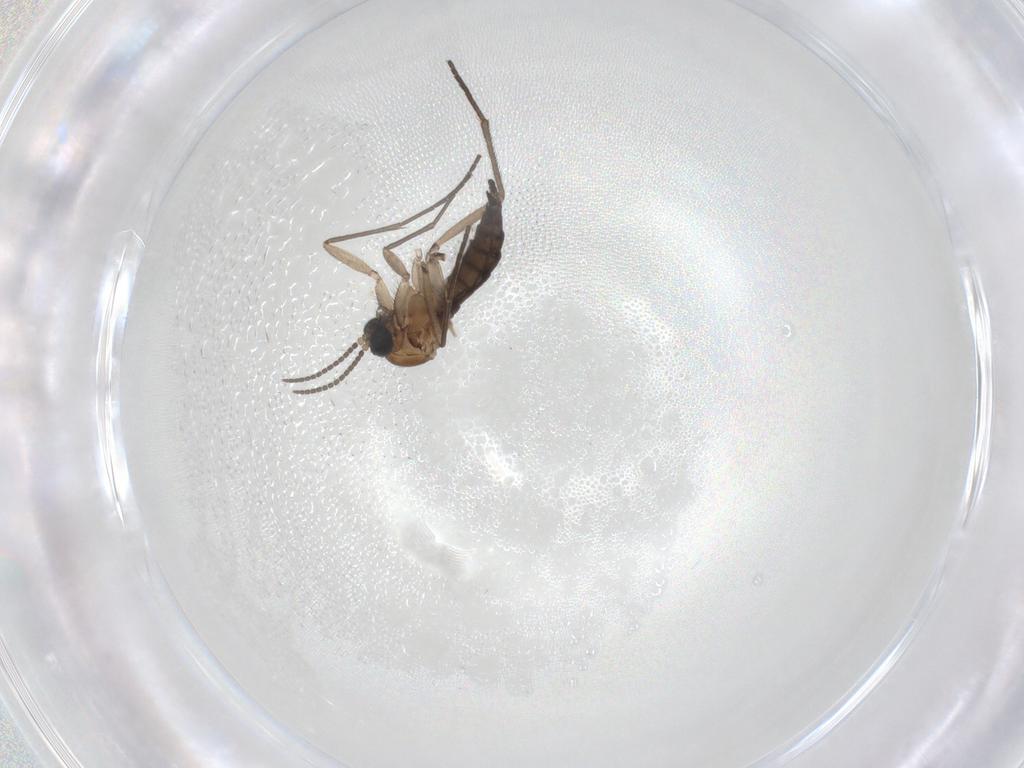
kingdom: Animalia
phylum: Arthropoda
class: Insecta
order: Diptera
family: Sciaridae
